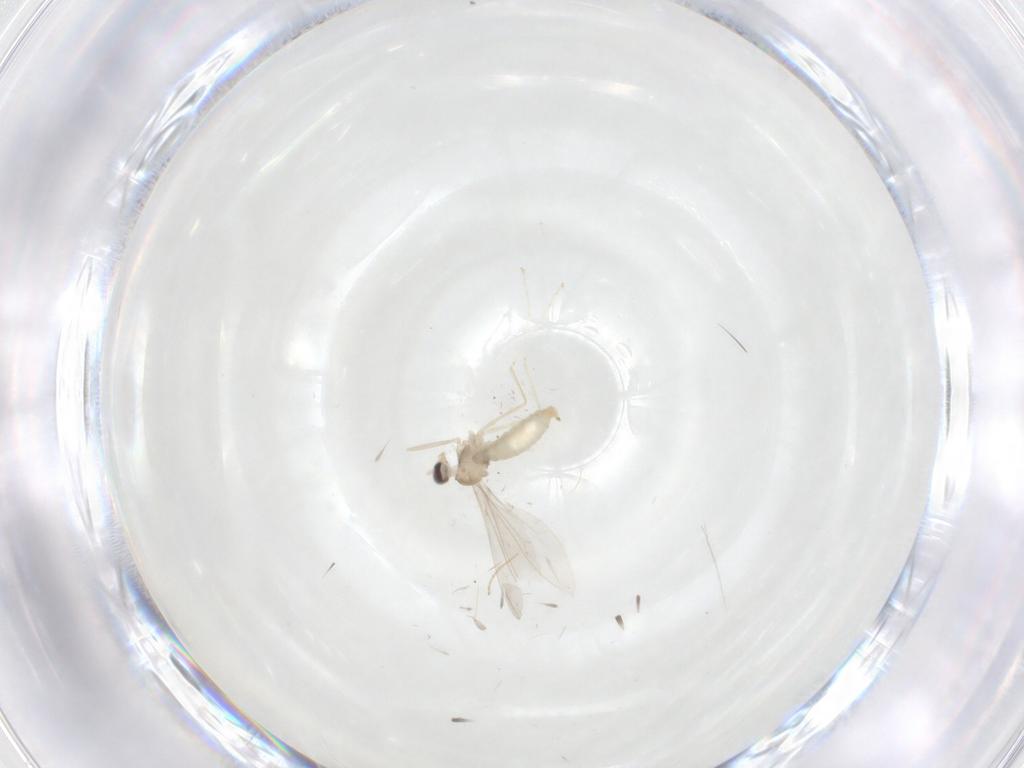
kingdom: Animalia
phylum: Arthropoda
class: Insecta
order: Diptera
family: Cecidomyiidae
